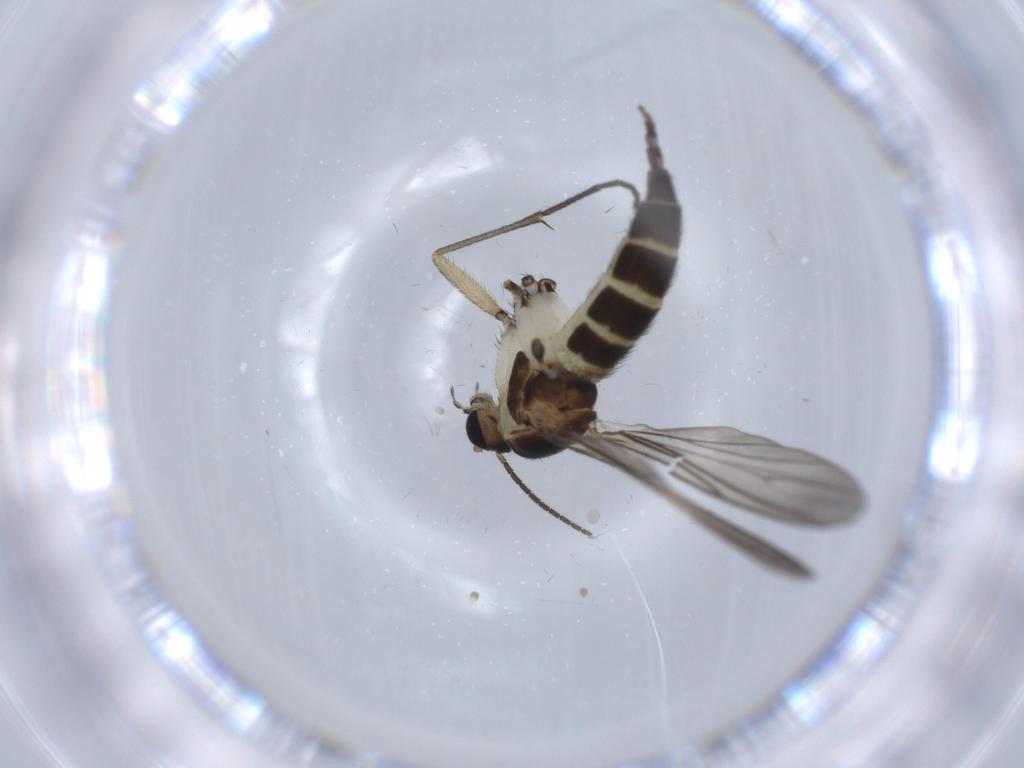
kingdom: Animalia
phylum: Arthropoda
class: Insecta
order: Diptera
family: Sciaridae
